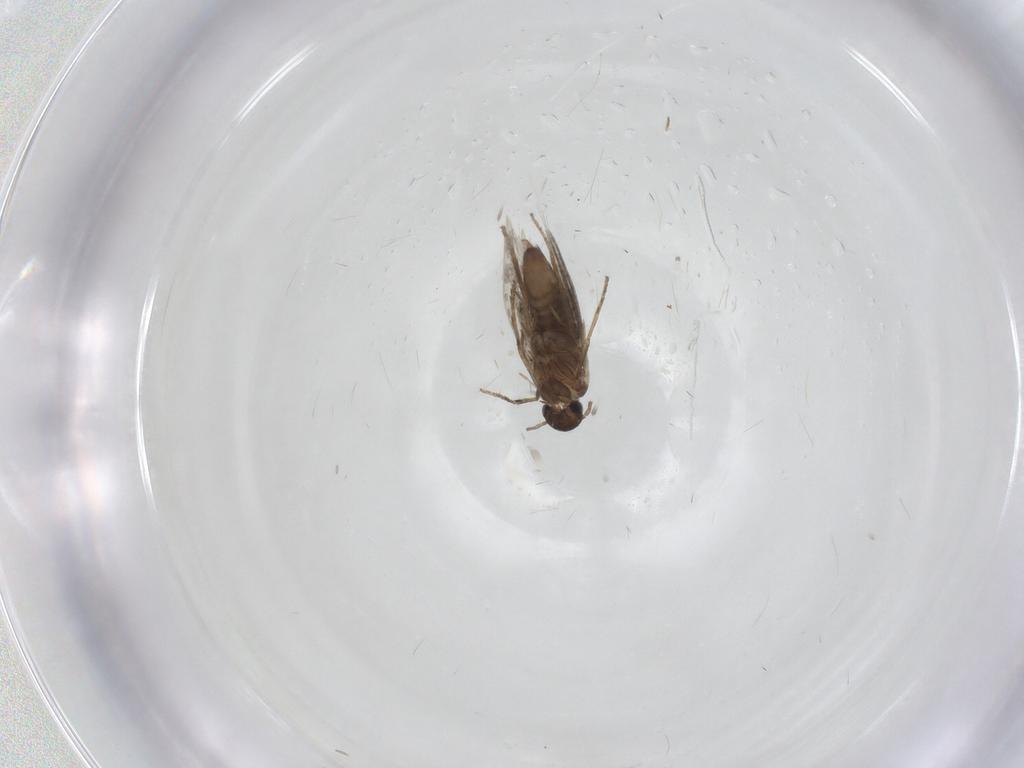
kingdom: Animalia
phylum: Arthropoda
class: Insecta
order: Lepidoptera
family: Heliozelidae
